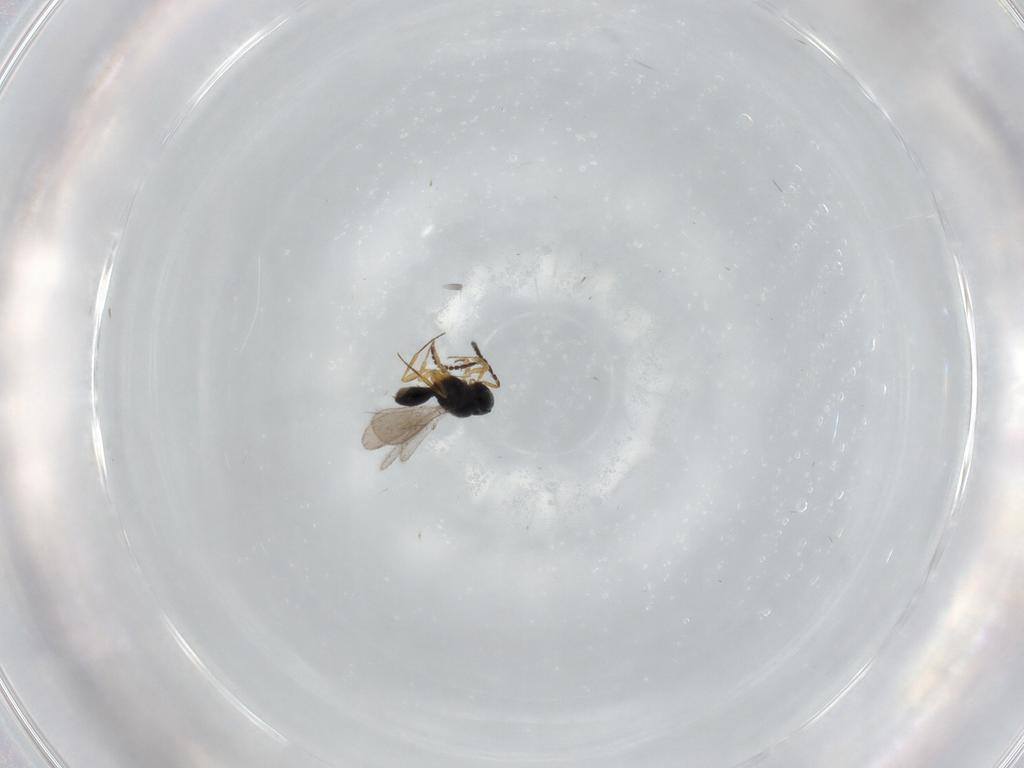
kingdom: Animalia
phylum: Arthropoda
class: Insecta
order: Hymenoptera
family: Scelionidae
